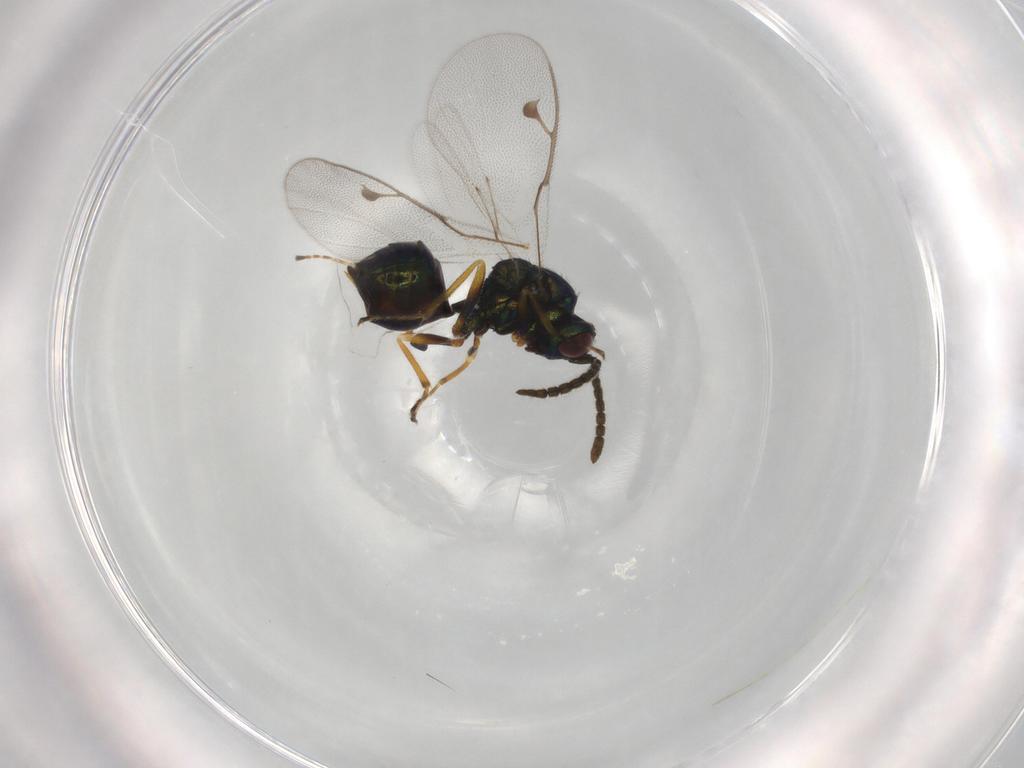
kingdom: Animalia
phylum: Arthropoda
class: Insecta
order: Hymenoptera
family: Pteromalidae
